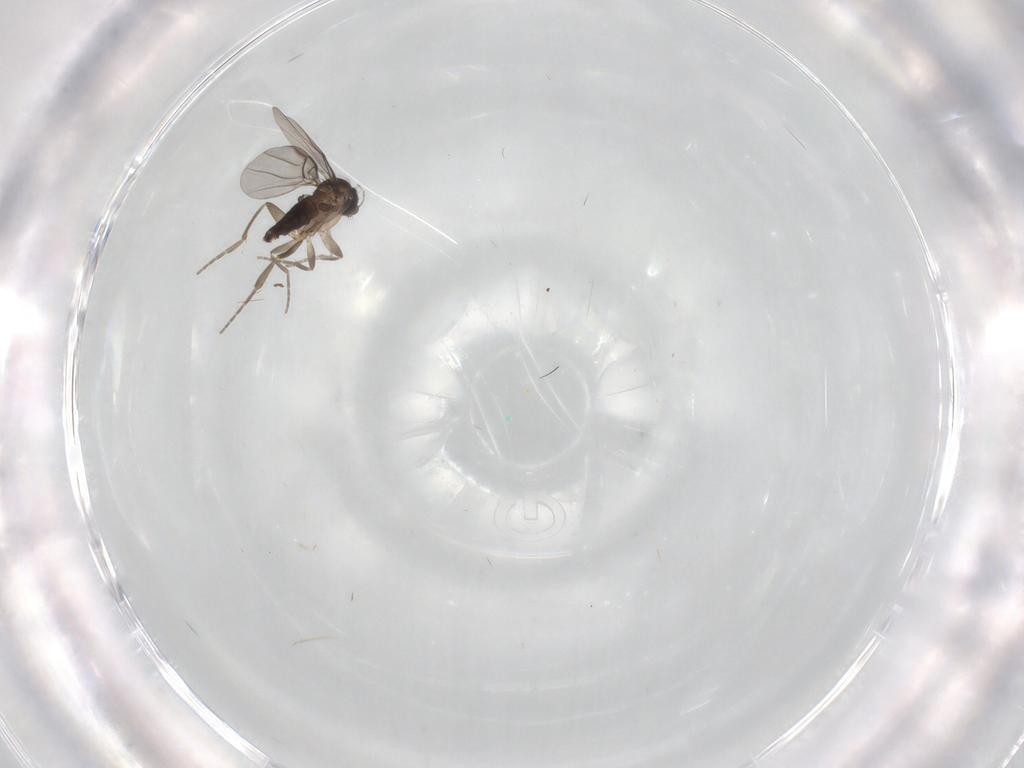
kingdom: Animalia
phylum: Arthropoda
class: Insecta
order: Diptera
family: Phoridae
